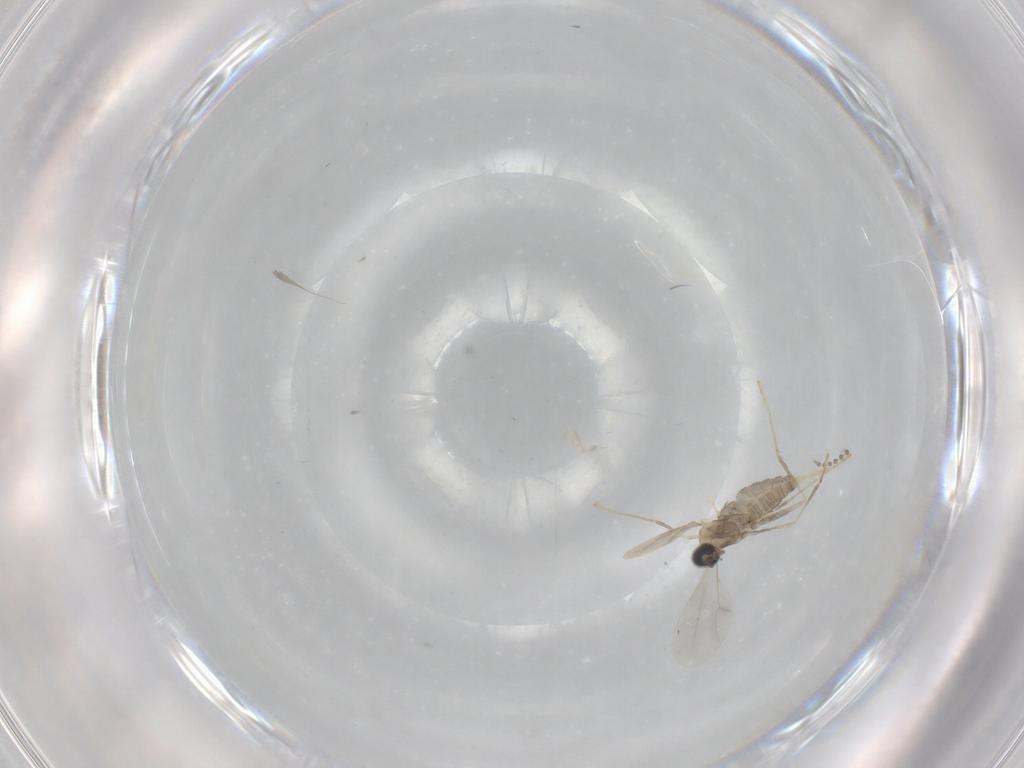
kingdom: Animalia
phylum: Arthropoda
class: Insecta
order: Diptera
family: Cecidomyiidae
